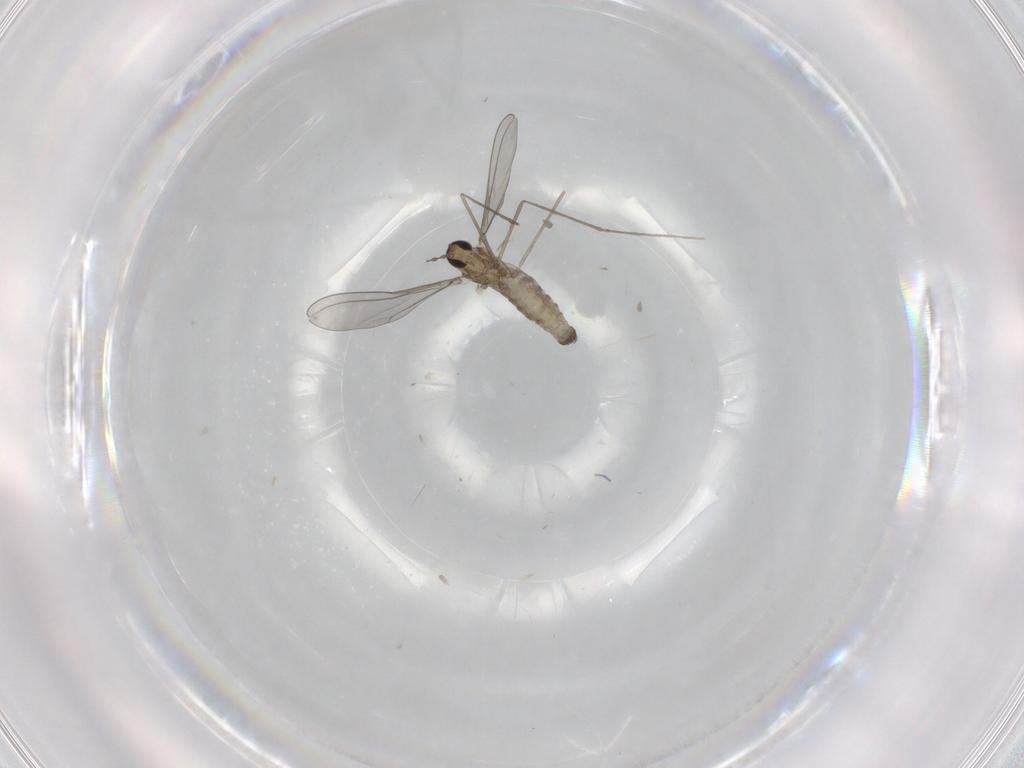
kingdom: Animalia
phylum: Arthropoda
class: Insecta
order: Diptera
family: Cecidomyiidae
